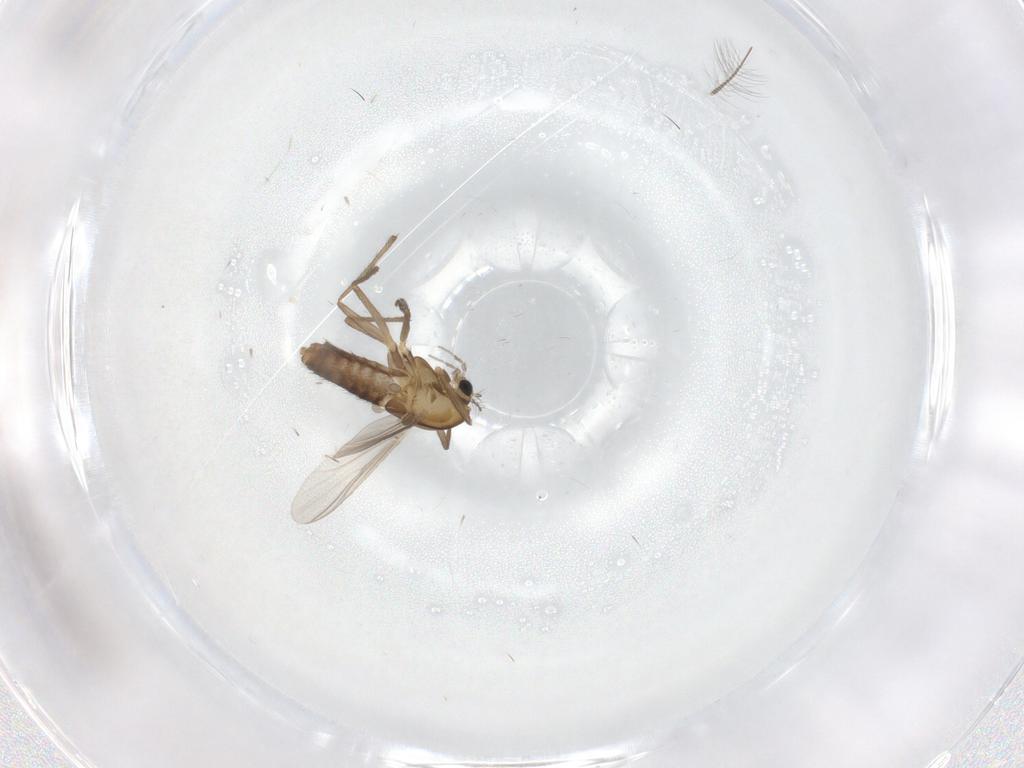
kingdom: Animalia
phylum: Arthropoda
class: Insecta
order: Diptera
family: Chironomidae
